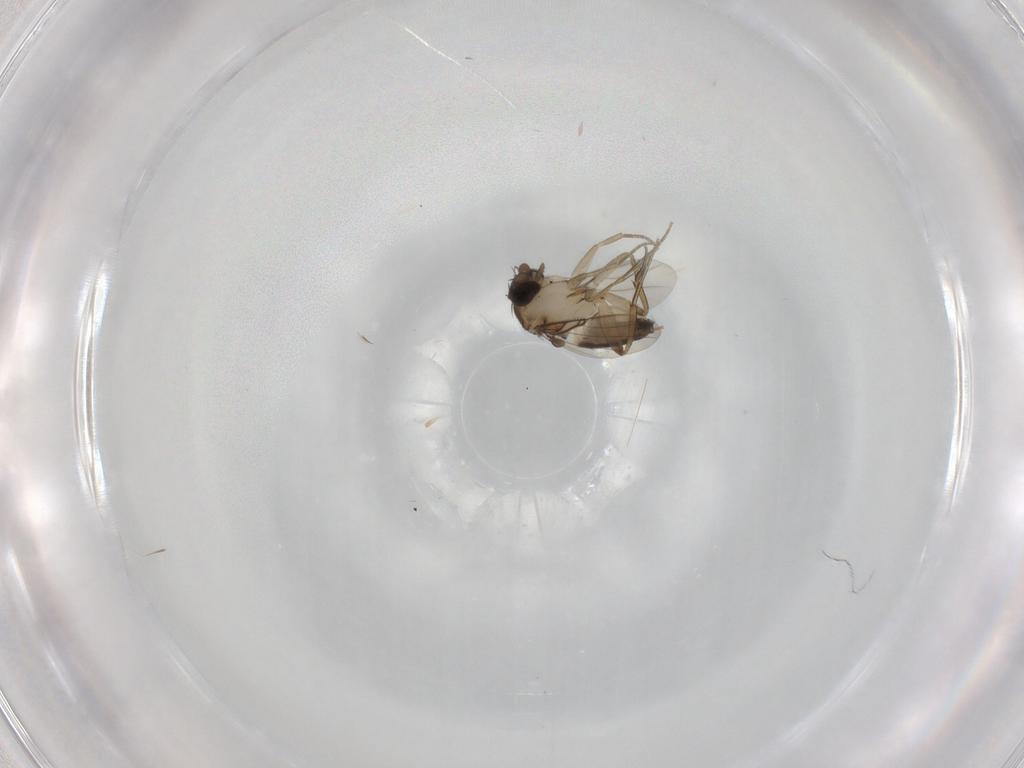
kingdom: Animalia
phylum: Arthropoda
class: Insecta
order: Diptera
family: Phoridae
